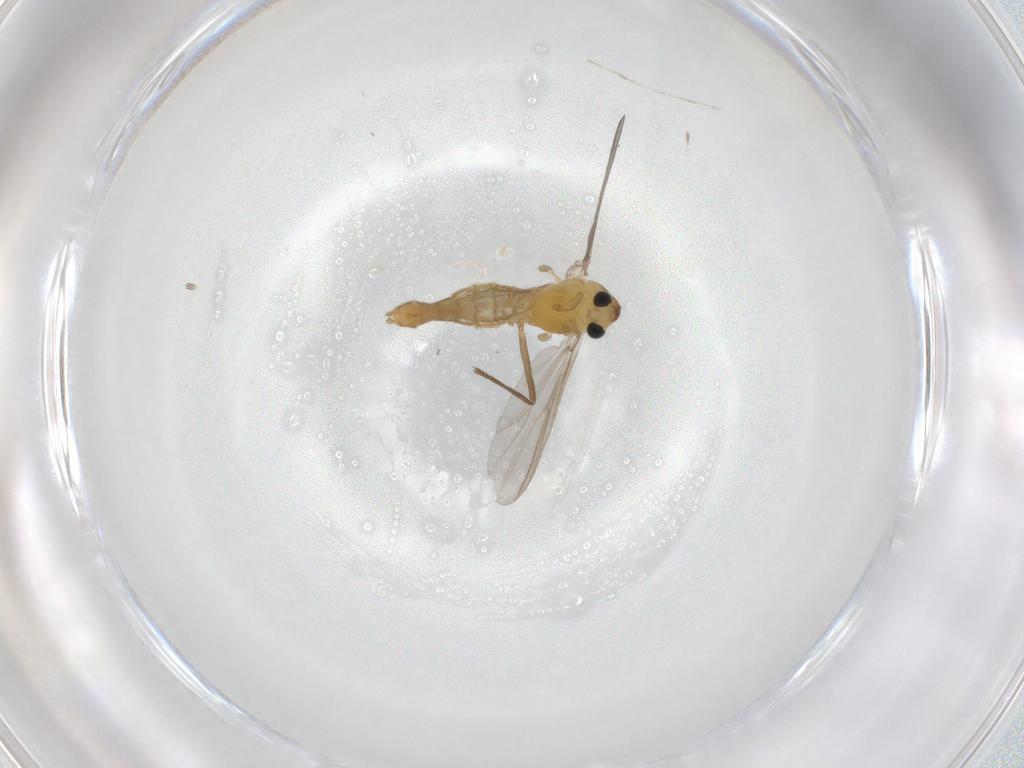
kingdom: Animalia
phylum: Arthropoda
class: Insecta
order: Diptera
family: Chironomidae
